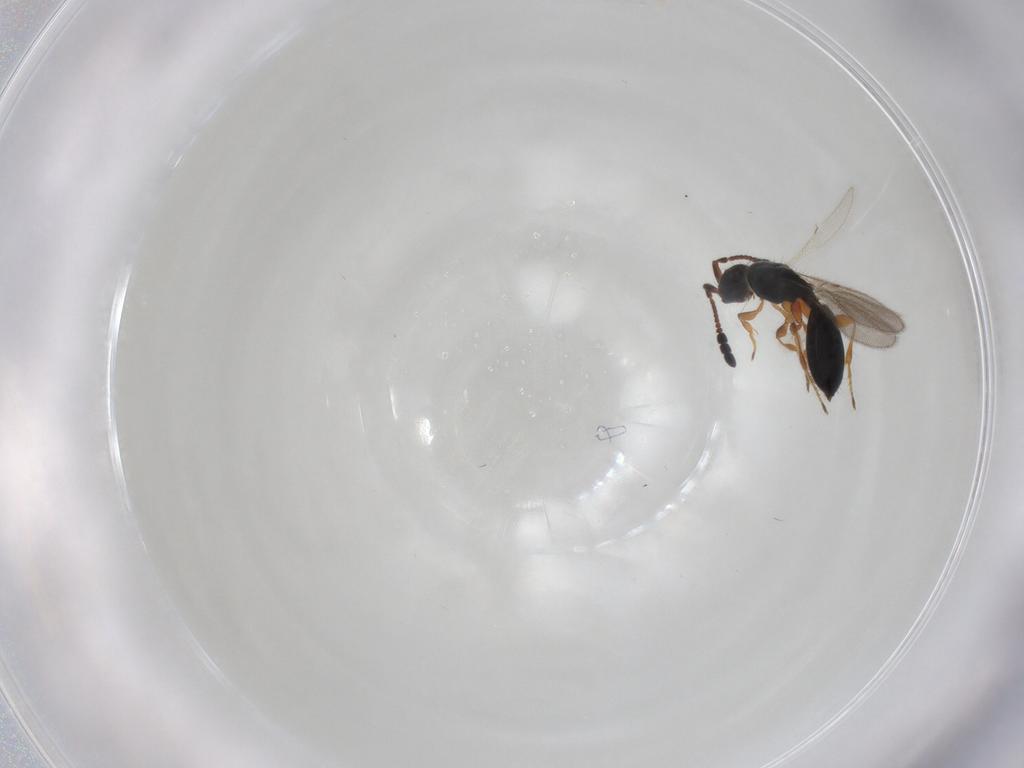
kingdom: Animalia
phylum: Arthropoda
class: Insecta
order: Hymenoptera
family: Diapriidae
